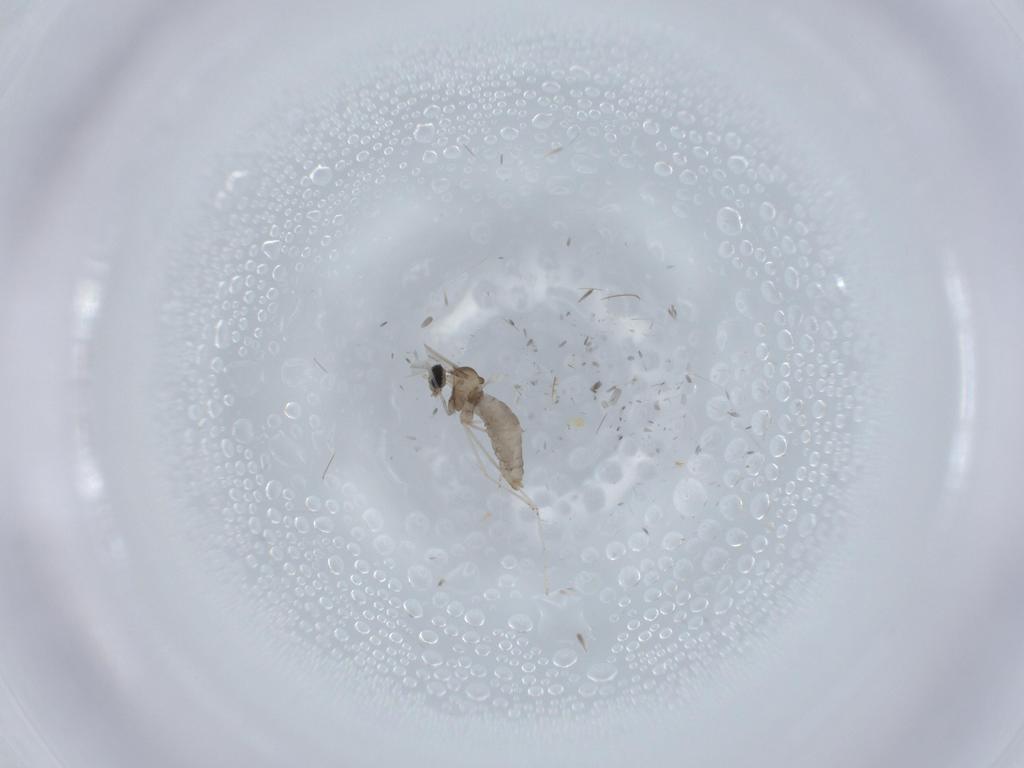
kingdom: Animalia
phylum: Arthropoda
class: Insecta
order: Diptera
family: Cecidomyiidae
